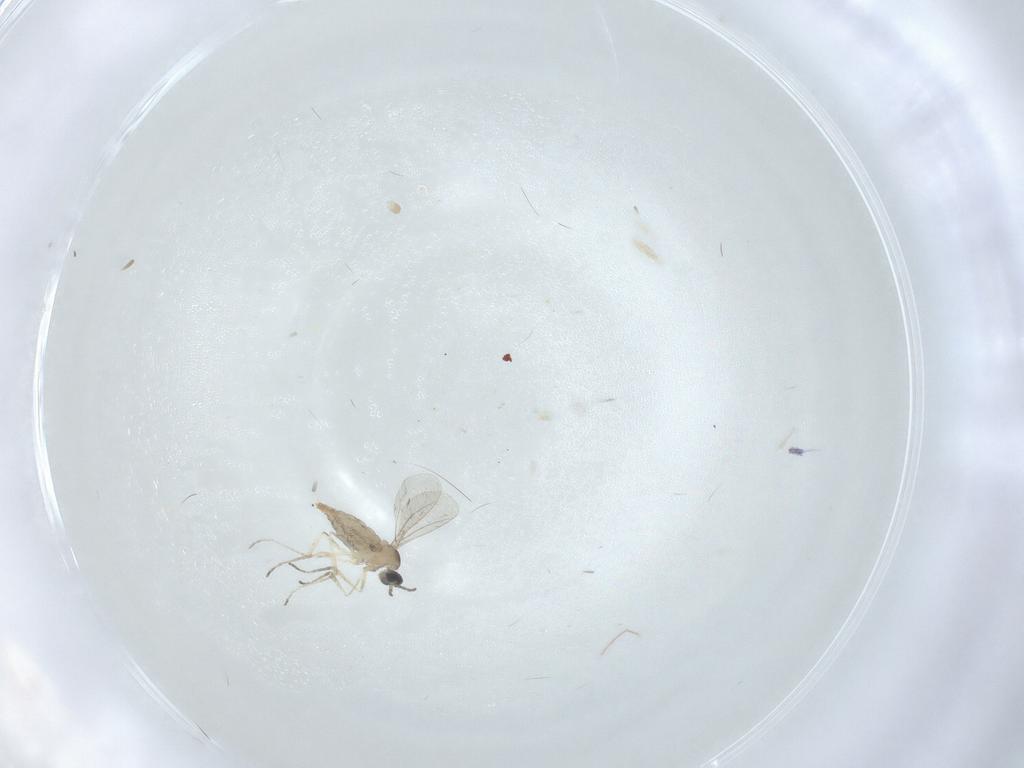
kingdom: Animalia
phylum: Arthropoda
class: Insecta
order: Diptera
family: Cecidomyiidae
